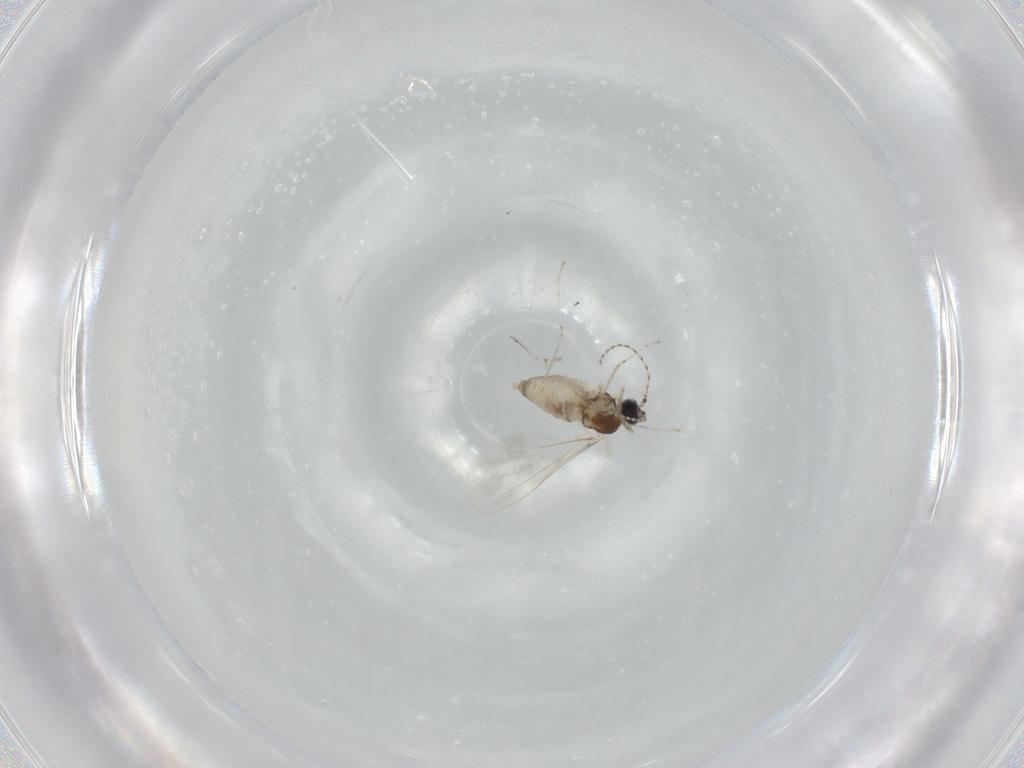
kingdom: Animalia
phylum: Arthropoda
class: Insecta
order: Diptera
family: Cecidomyiidae
